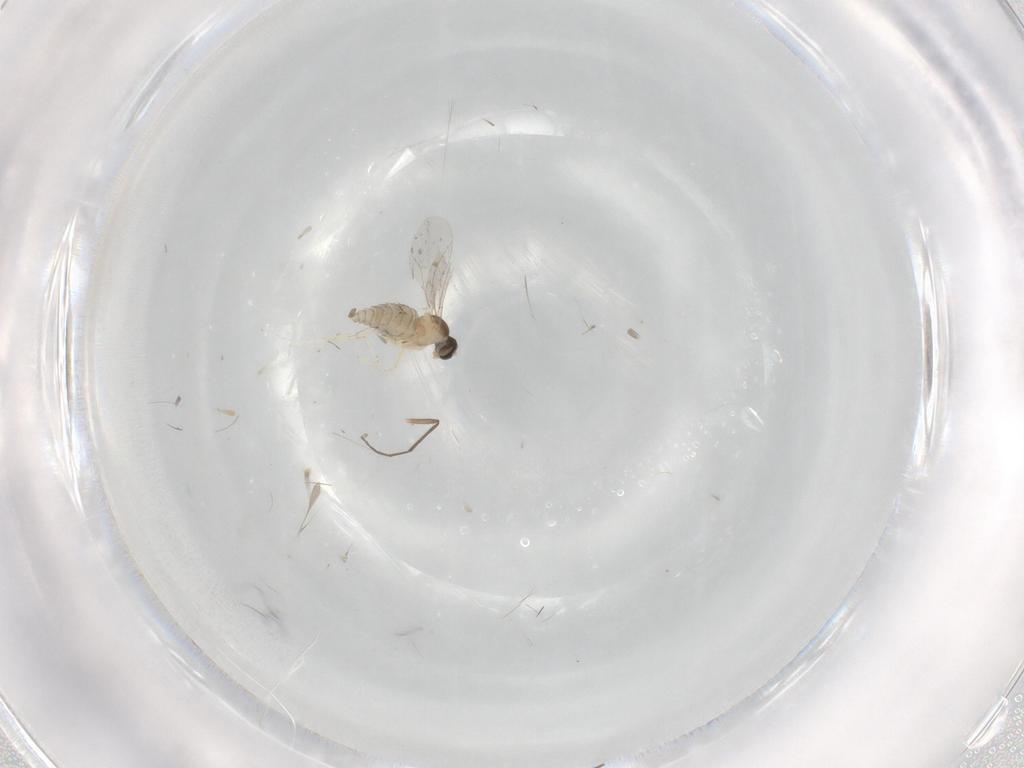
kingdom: Animalia
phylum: Arthropoda
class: Insecta
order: Diptera
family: Cecidomyiidae
